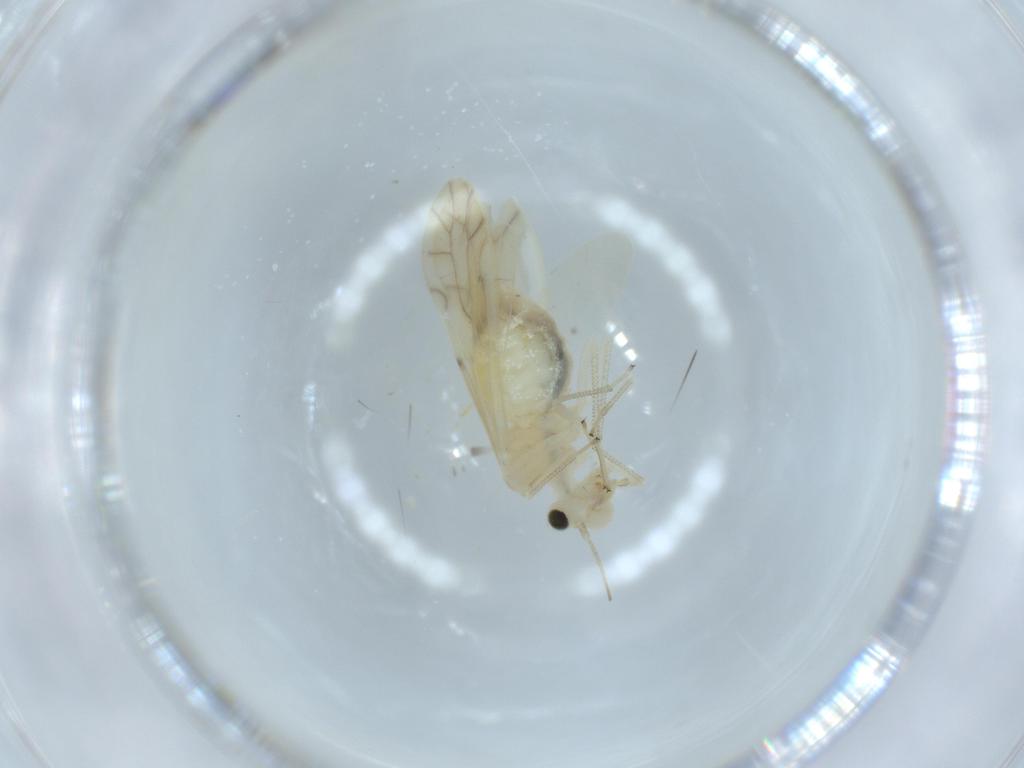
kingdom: Animalia
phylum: Arthropoda
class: Insecta
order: Psocodea
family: Caeciliusidae
